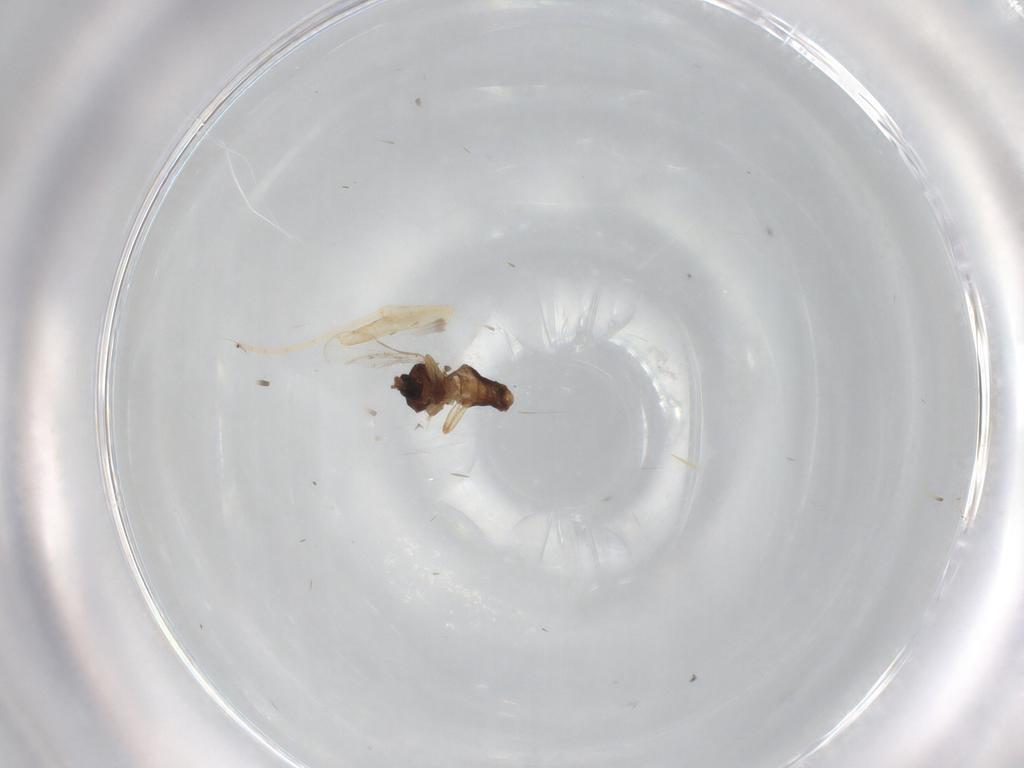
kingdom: Animalia
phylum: Arthropoda
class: Insecta
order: Diptera
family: Ceratopogonidae
